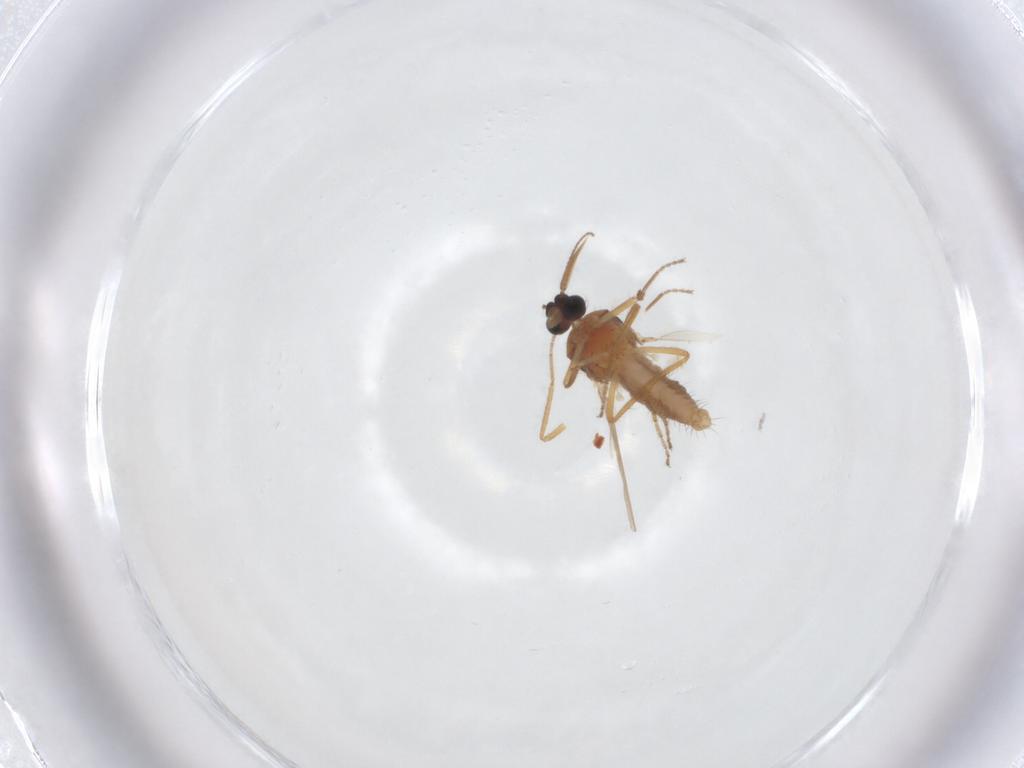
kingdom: Animalia
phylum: Arthropoda
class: Insecta
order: Diptera
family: Ceratopogonidae
